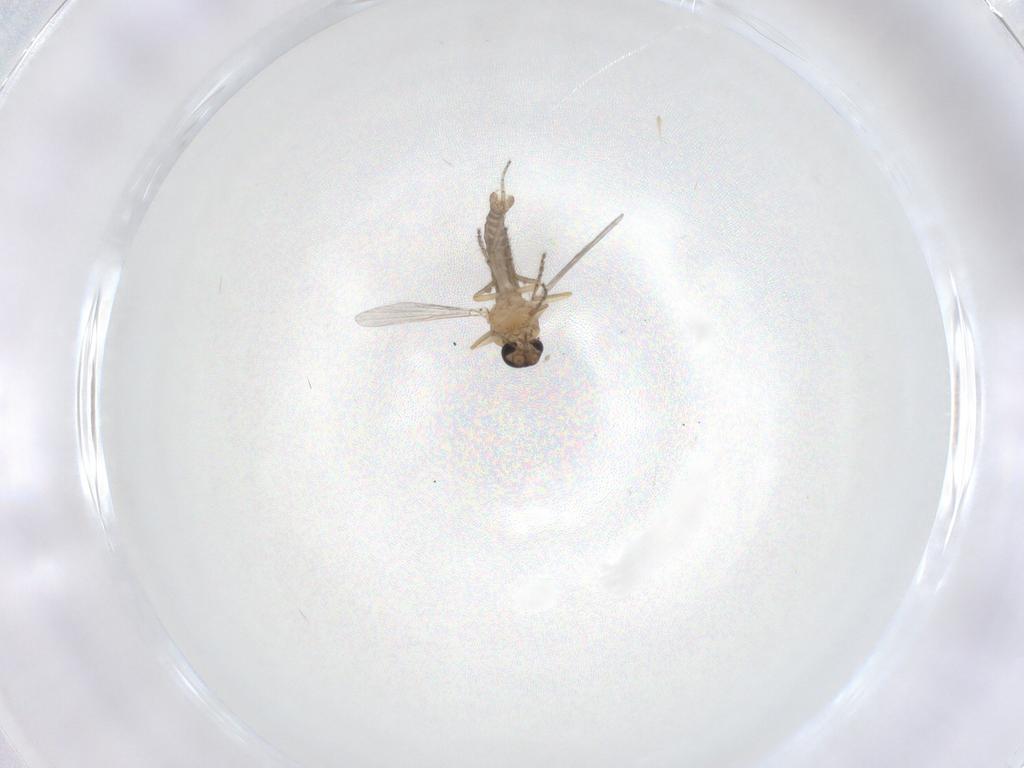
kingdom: Animalia
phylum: Arthropoda
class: Insecta
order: Diptera
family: Ceratopogonidae
